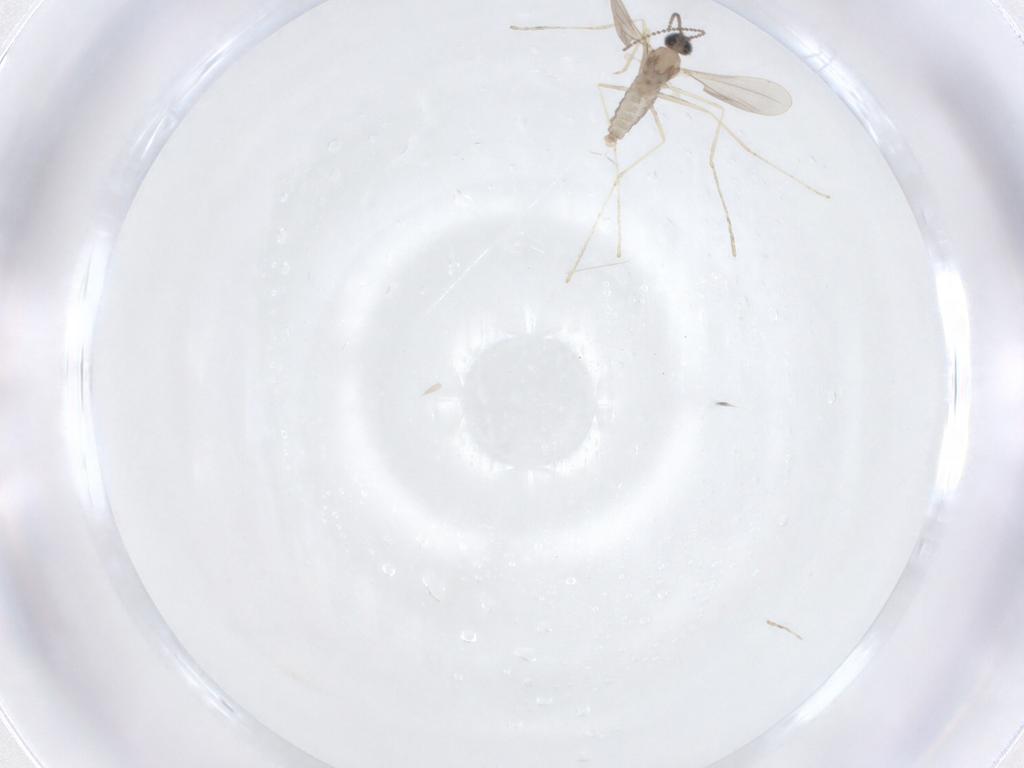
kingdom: Animalia
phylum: Arthropoda
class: Insecta
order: Diptera
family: Cecidomyiidae
